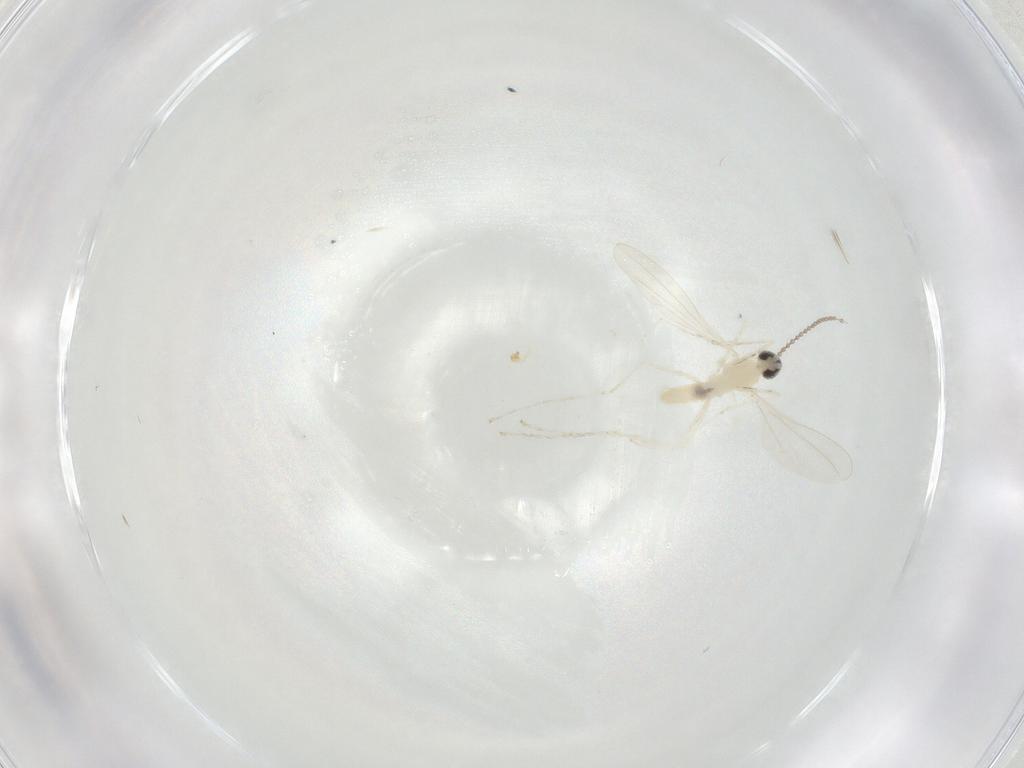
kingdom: Animalia
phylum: Arthropoda
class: Insecta
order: Diptera
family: Cecidomyiidae
